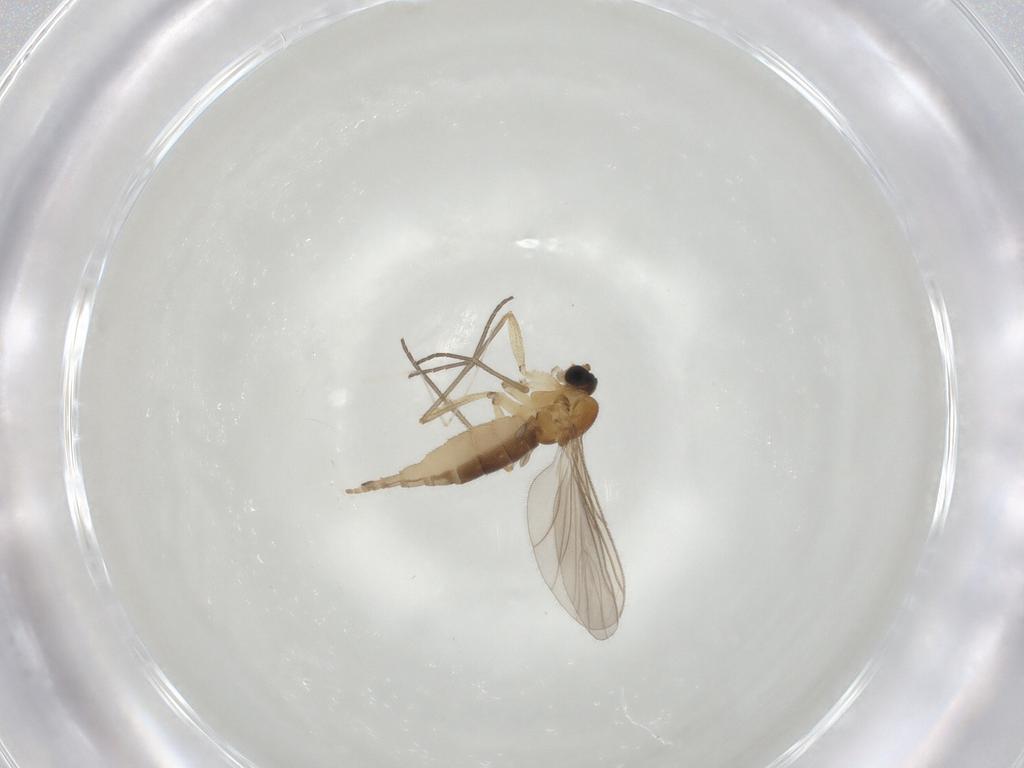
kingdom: Animalia
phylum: Arthropoda
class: Insecta
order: Diptera
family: Sciaridae
